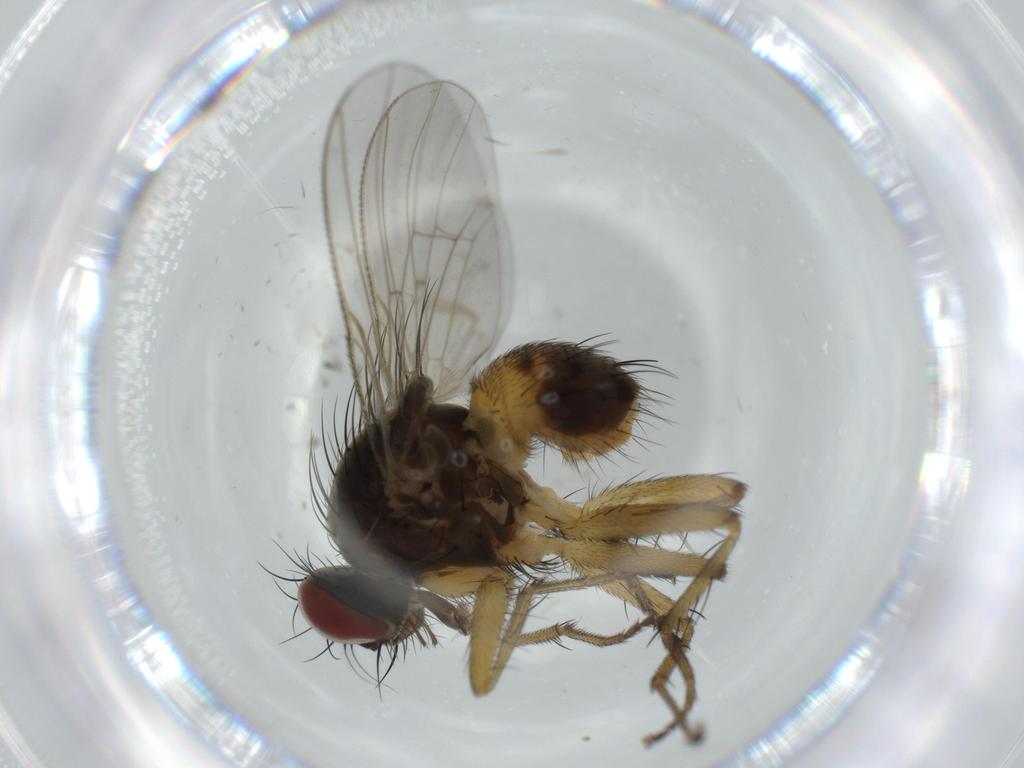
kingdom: Animalia
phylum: Arthropoda
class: Insecta
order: Diptera
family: Muscidae
